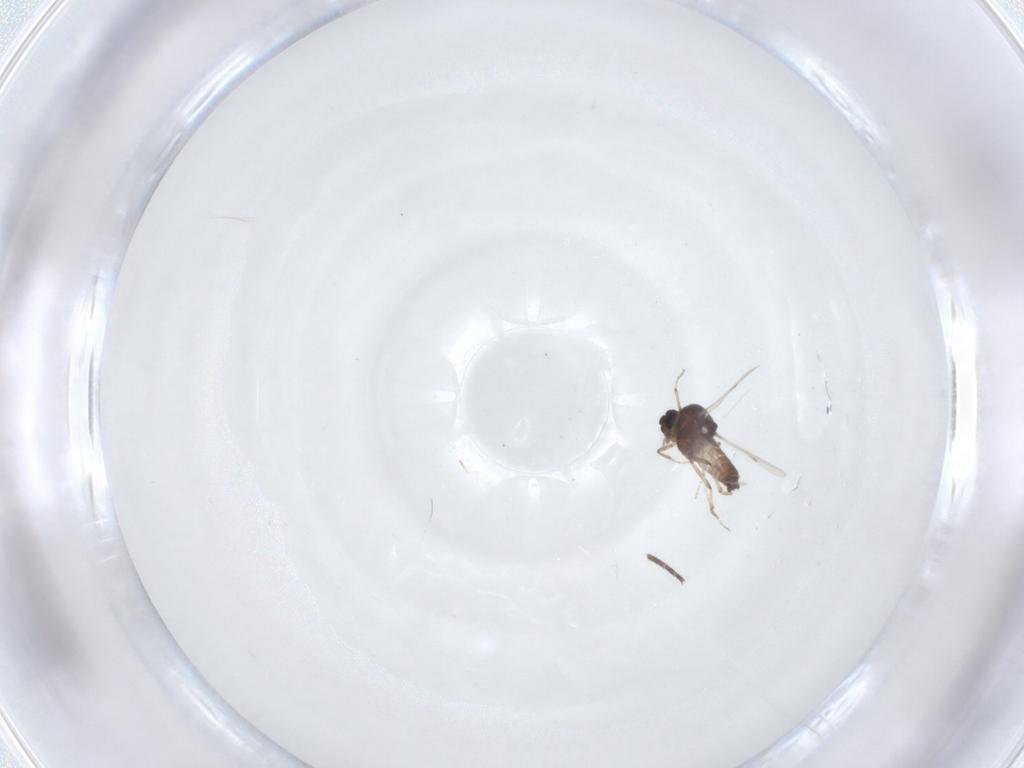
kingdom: Animalia
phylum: Arthropoda
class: Insecta
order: Diptera
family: Mycetophilidae
